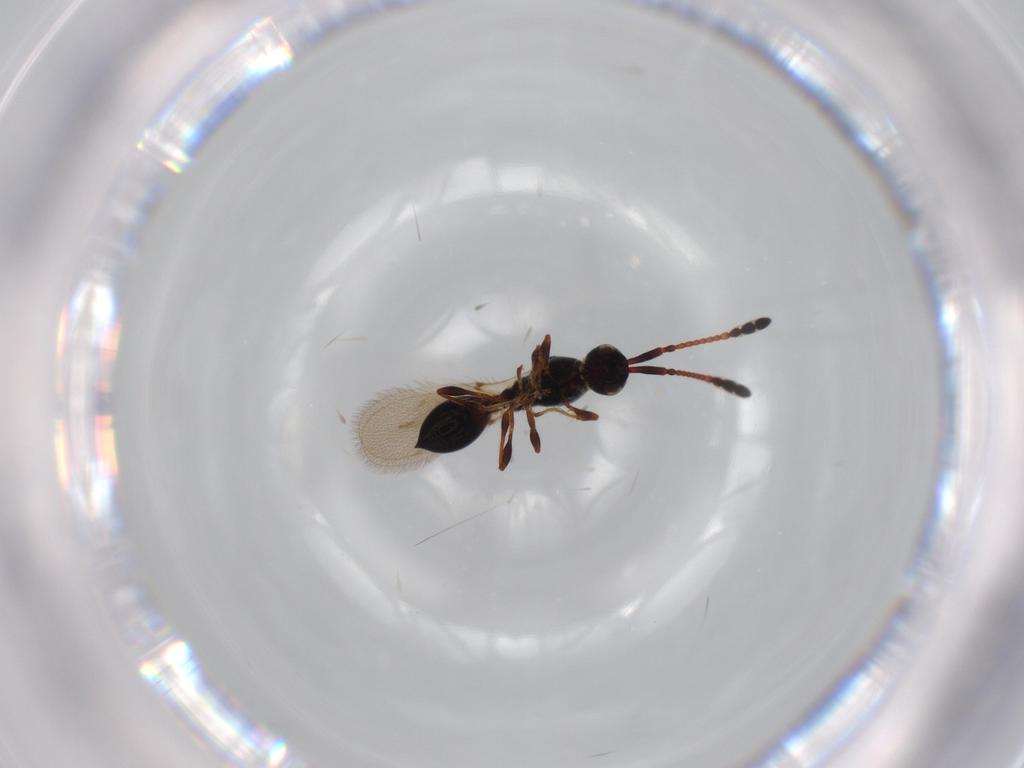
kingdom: Animalia
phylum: Arthropoda
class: Insecta
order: Hymenoptera
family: Diapriidae
